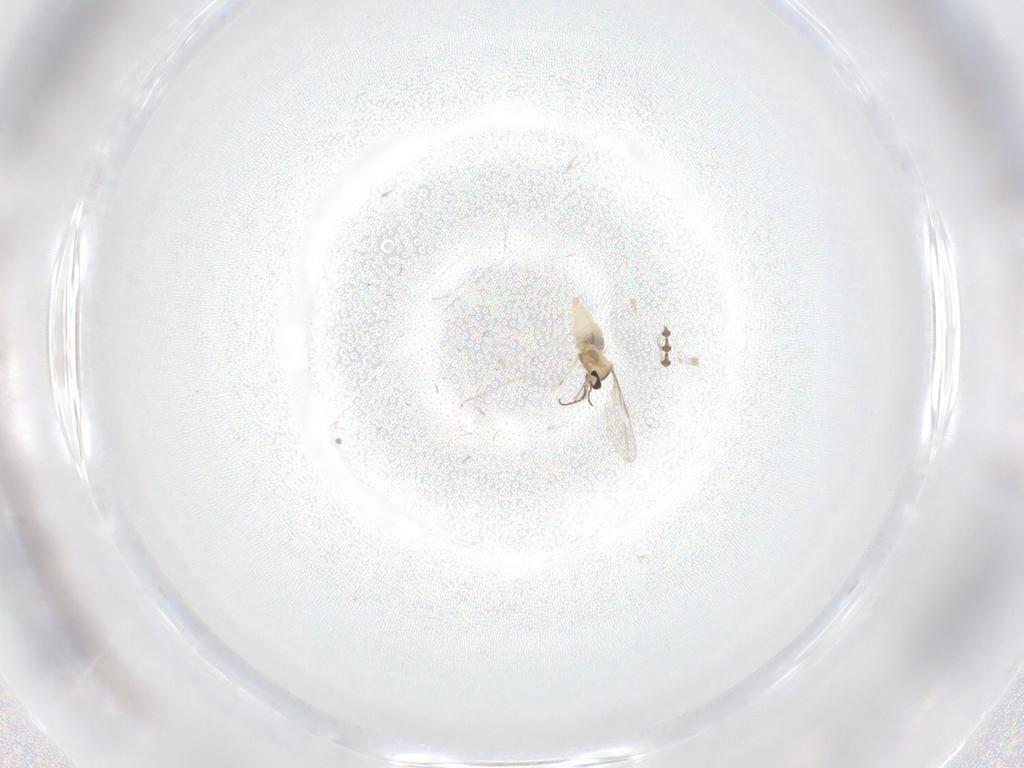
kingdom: Animalia
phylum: Arthropoda
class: Insecta
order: Diptera
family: Cecidomyiidae
